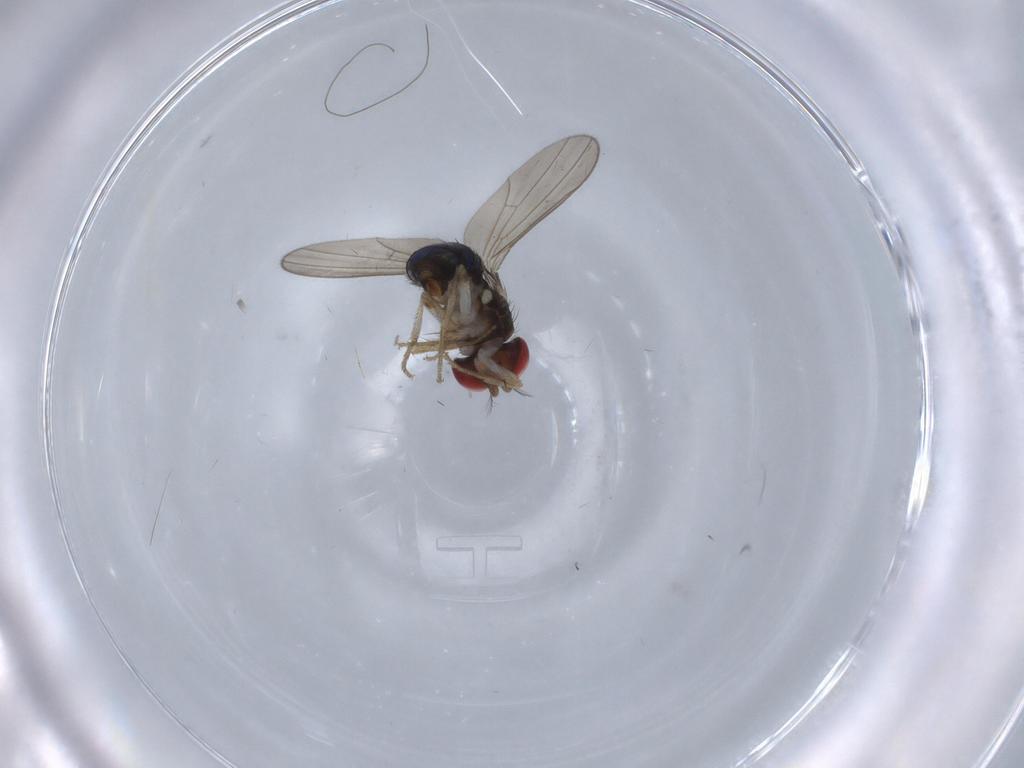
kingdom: Animalia
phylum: Arthropoda
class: Insecta
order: Diptera
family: Drosophilidae
